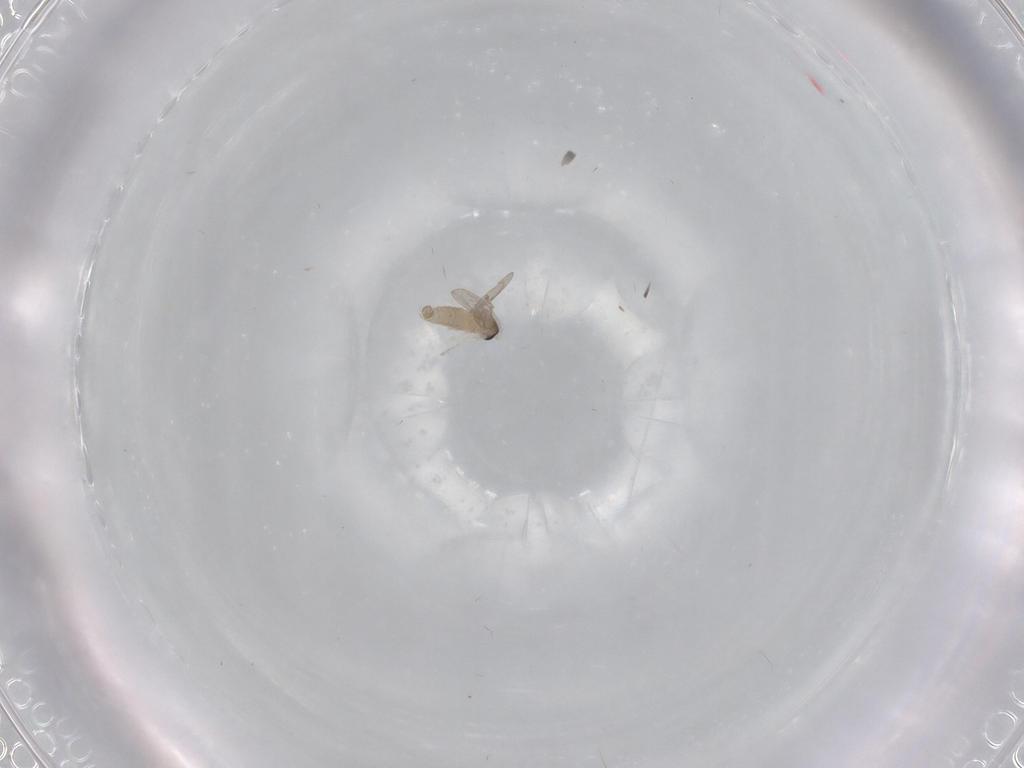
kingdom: Animalia
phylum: Arthropoda
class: Insecta
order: Diptera
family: Cecidomyiidae
